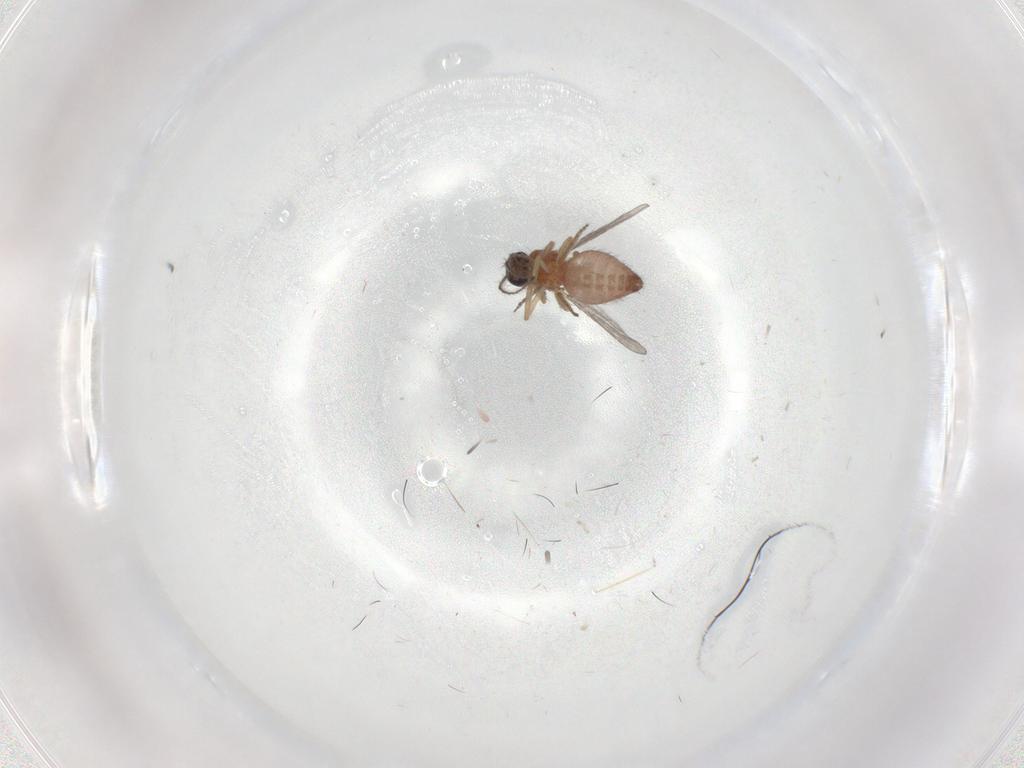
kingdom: Animalia
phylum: Arthropoda
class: Insecta
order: Diptera
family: Ceratopogonidae
